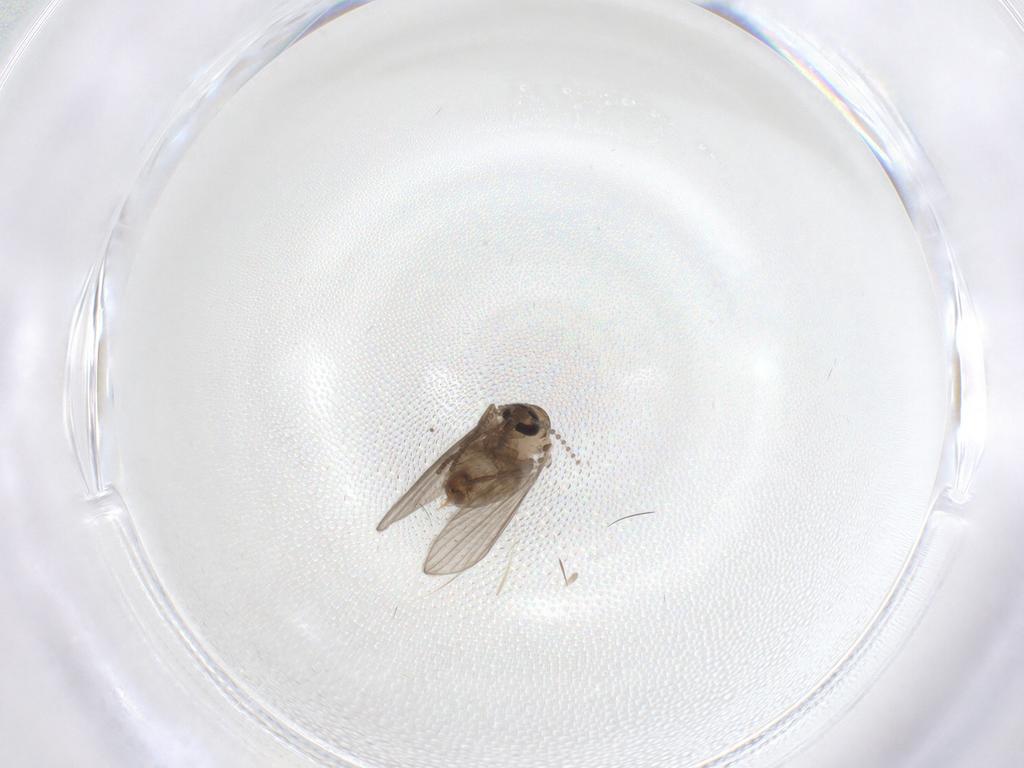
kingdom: Animalia
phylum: Arthropoda
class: Insecta
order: Diptera
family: Psychodidae
